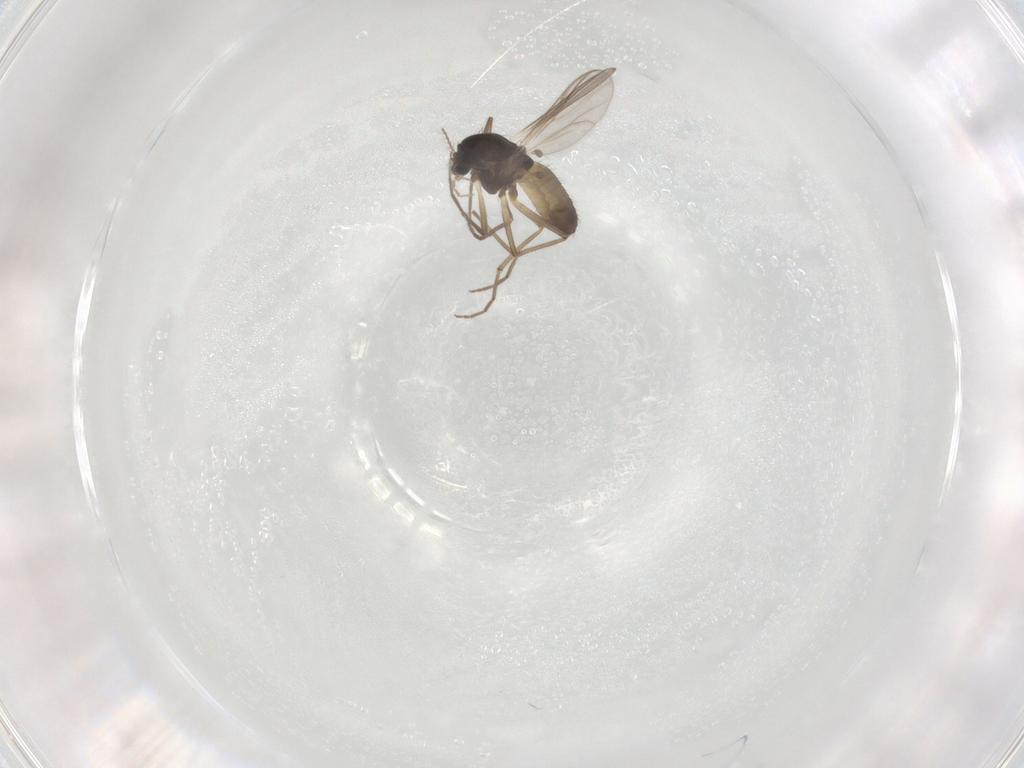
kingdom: Animalia
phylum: Arthropoda
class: Insecta
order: Diptera
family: Chironomidae
